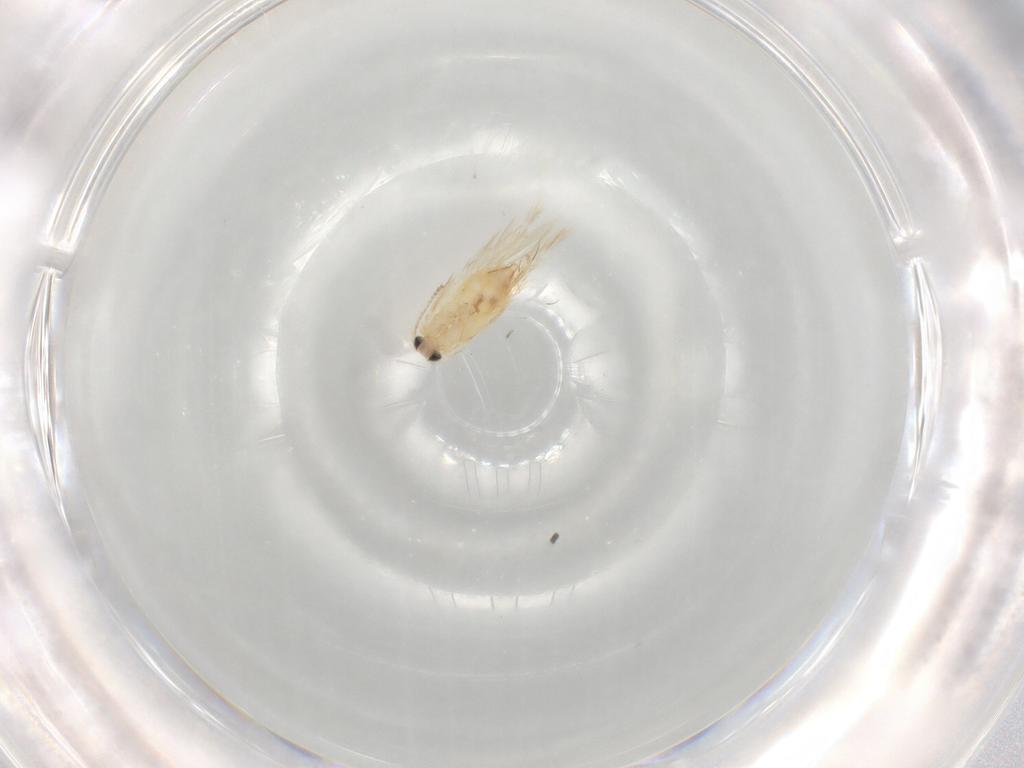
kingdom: Animalia
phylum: Arthropoda
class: Insecta
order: Lepidoptera
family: Nepticulidae
